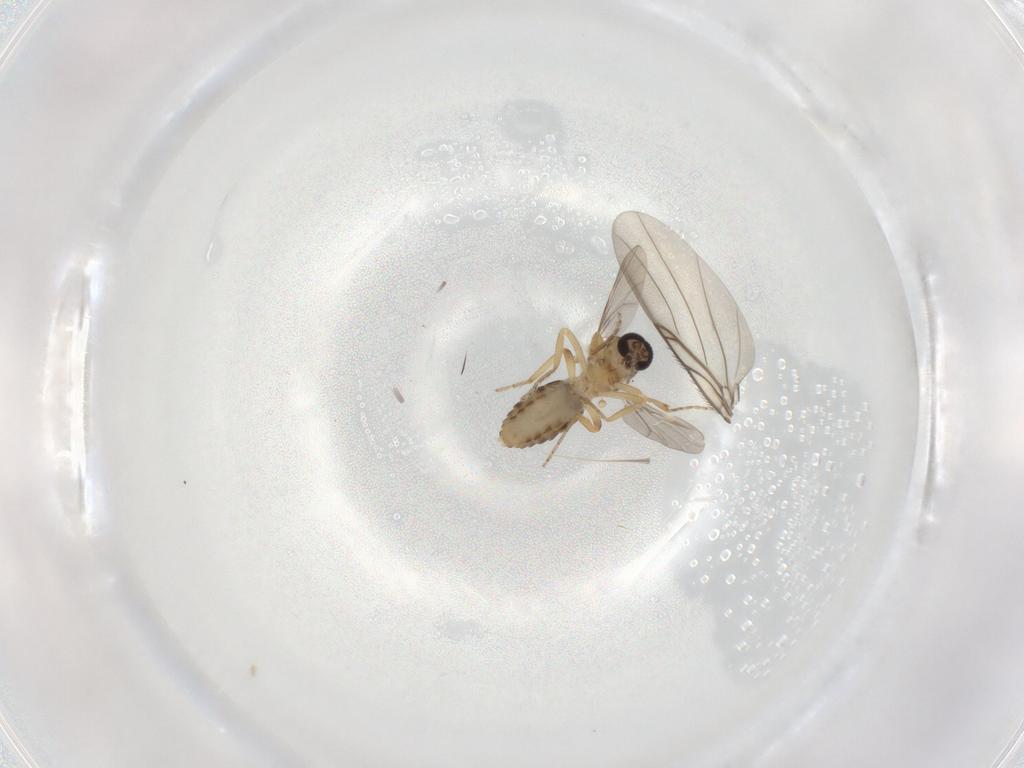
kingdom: Animalia
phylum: Arthropoda
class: Insecta
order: Diptera
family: Ceratopogonidae
